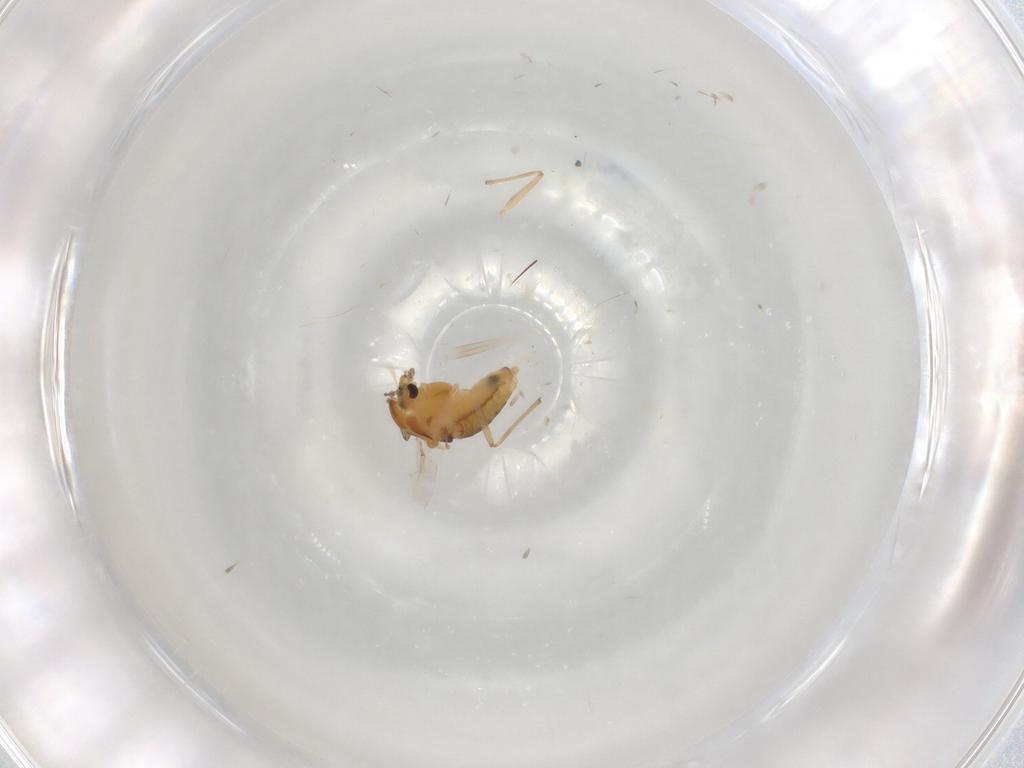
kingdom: Animalia
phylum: Arthropoda
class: Insecta
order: Diptera
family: Chironomidae
